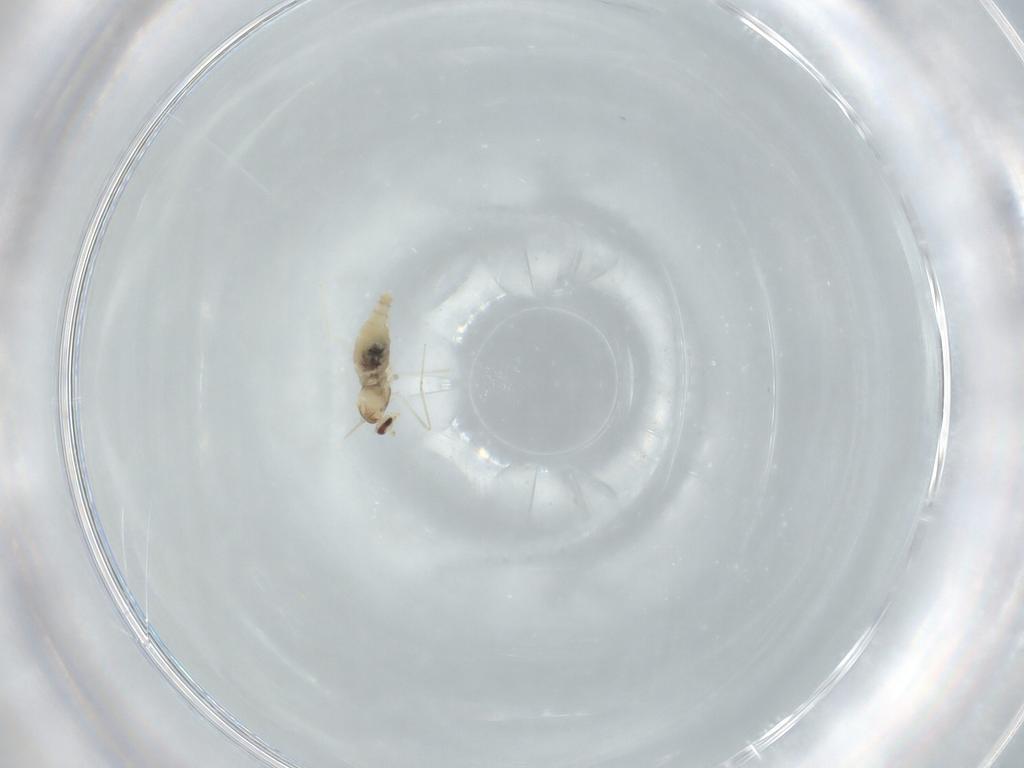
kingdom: Animalia
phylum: Arthropoda
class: Insecta
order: Diptera
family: Cecidomyiidae
